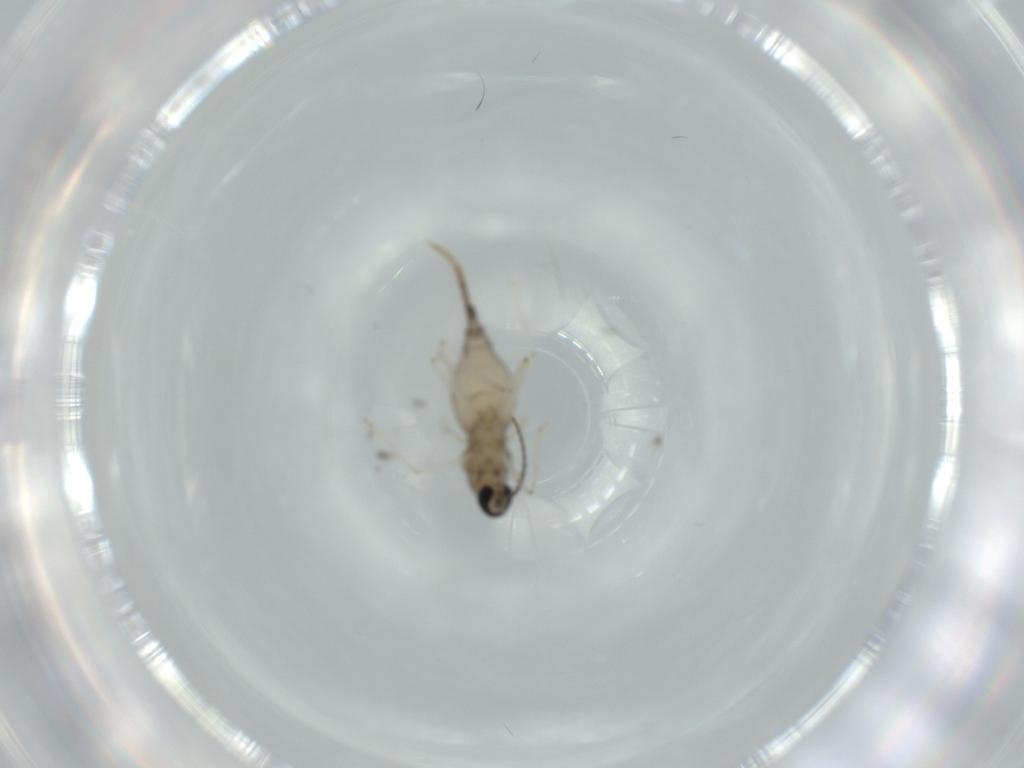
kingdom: Animalia
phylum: Arthropoda
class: Insecta
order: Diptera
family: Cecidomyiidae
